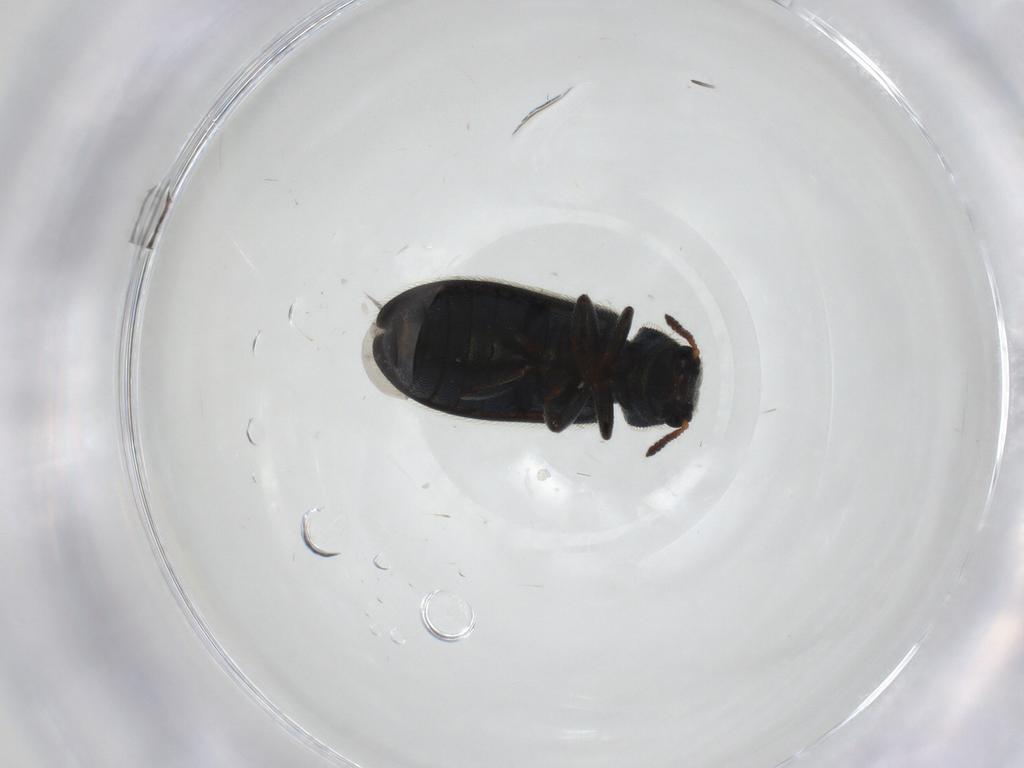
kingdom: Animalia
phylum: Arthropoda
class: Insecta
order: Coleoptera
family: Melyridae
